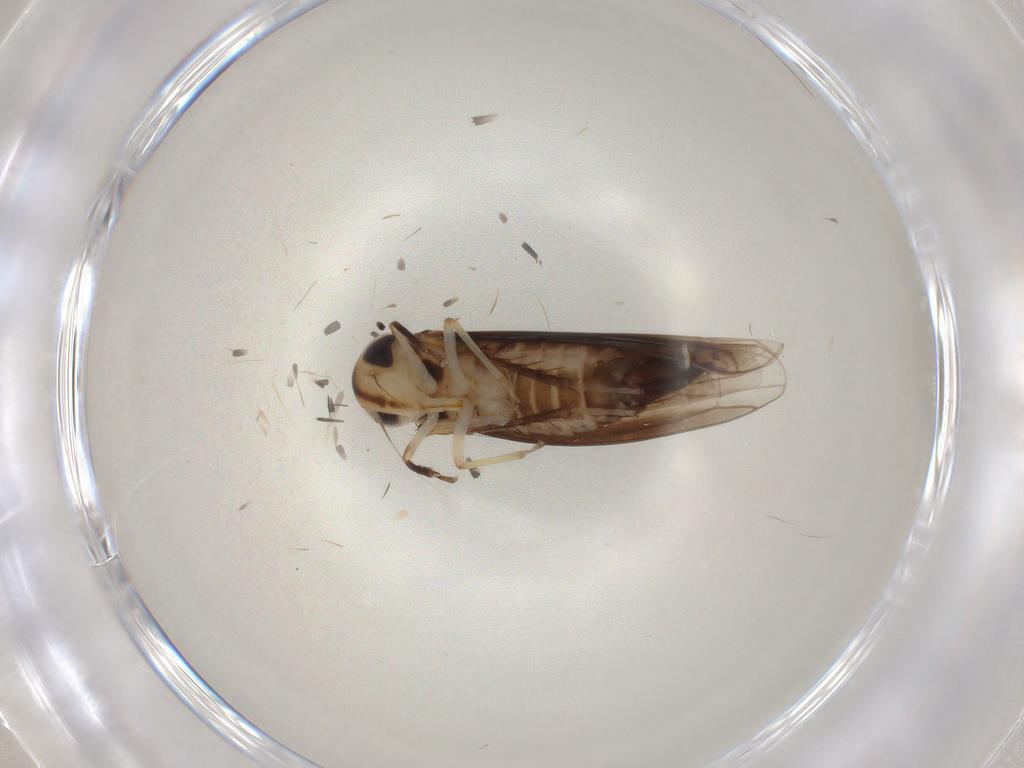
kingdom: Animalia
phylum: Arthropoda
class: Insecta
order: Hemiptera
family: Cicadellidae
